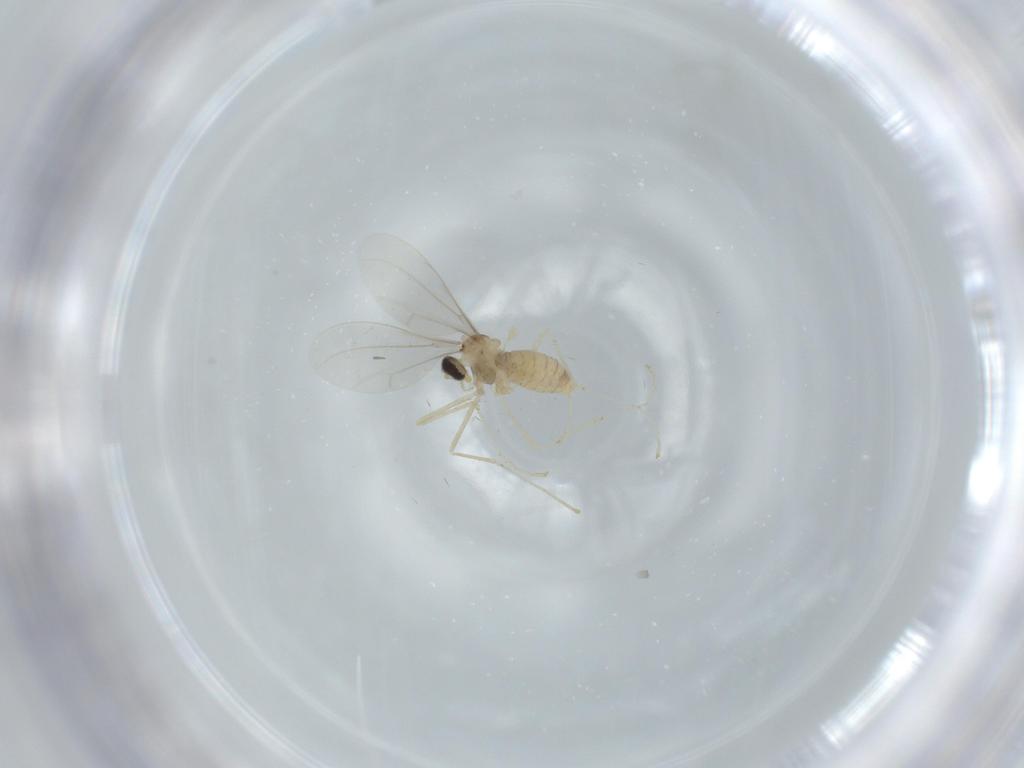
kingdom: Animalia
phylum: Arthropoda
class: Insecta
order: Diptera
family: Cecidomyiidae
